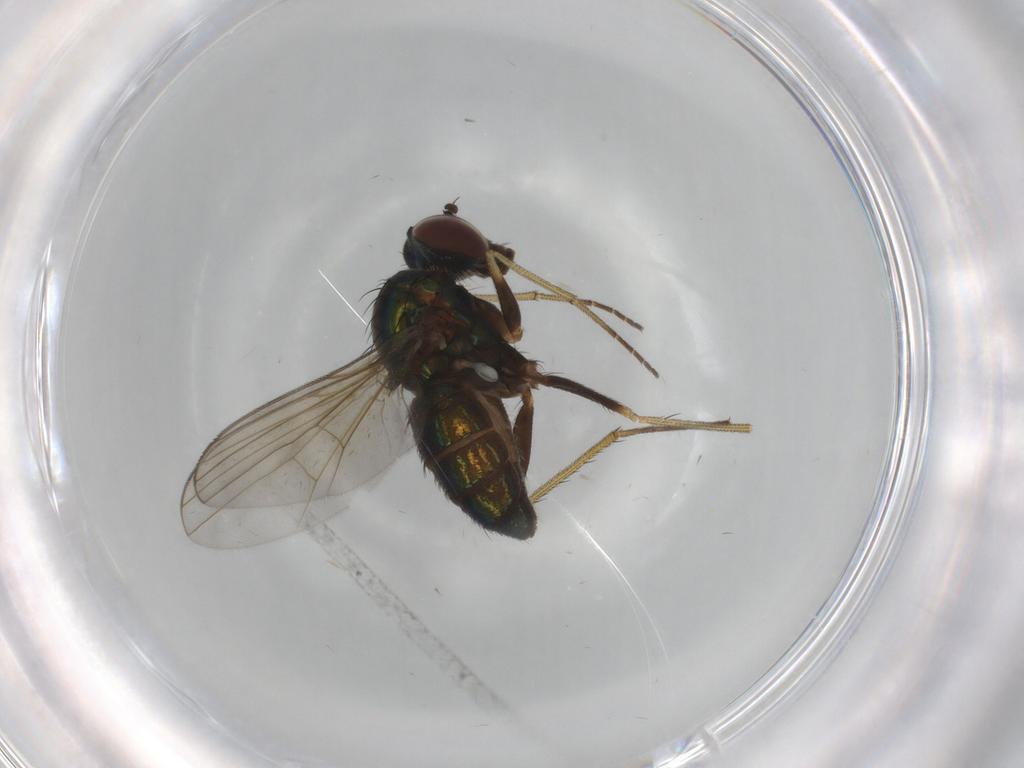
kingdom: Animalia
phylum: Arthropoda
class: Insecta
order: Diptera
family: Dolichopodidae
